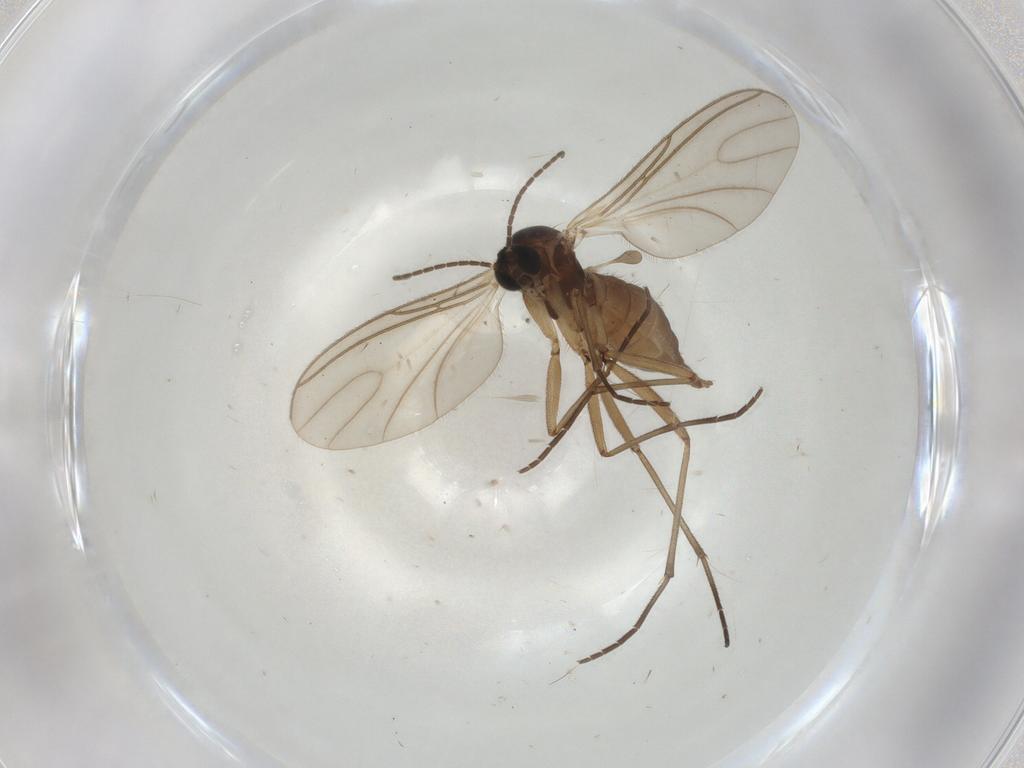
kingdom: Animalia
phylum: Arthropoda
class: Insecta
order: Diptera
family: Sciaridae
